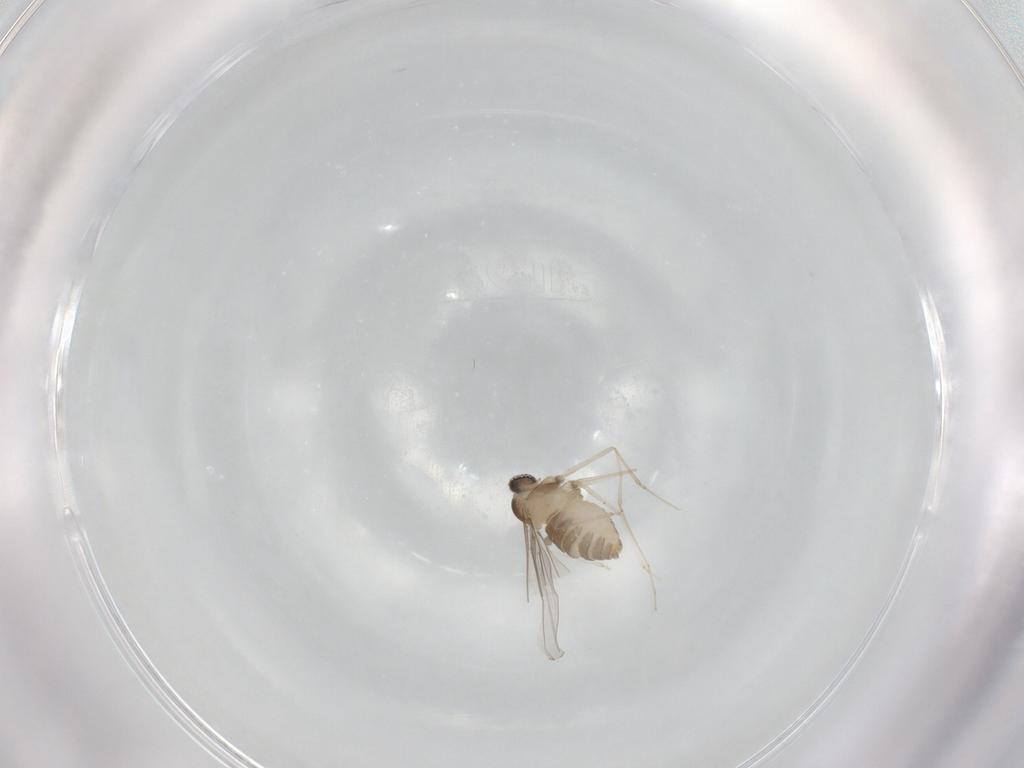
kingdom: Animalia
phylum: Arthropoda
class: Insecta
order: Diptera
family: Cecidomyiidae
